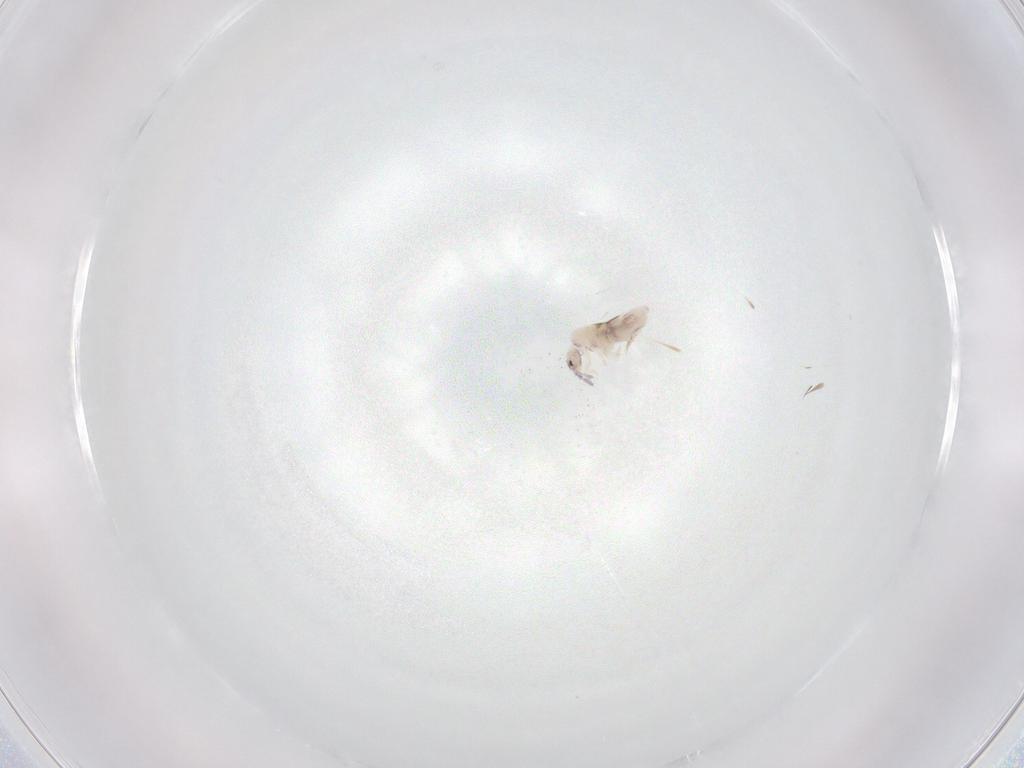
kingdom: Animalia
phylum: Arthropoda
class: Collembola
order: Entomobryomorpha
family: Entomobryidae
